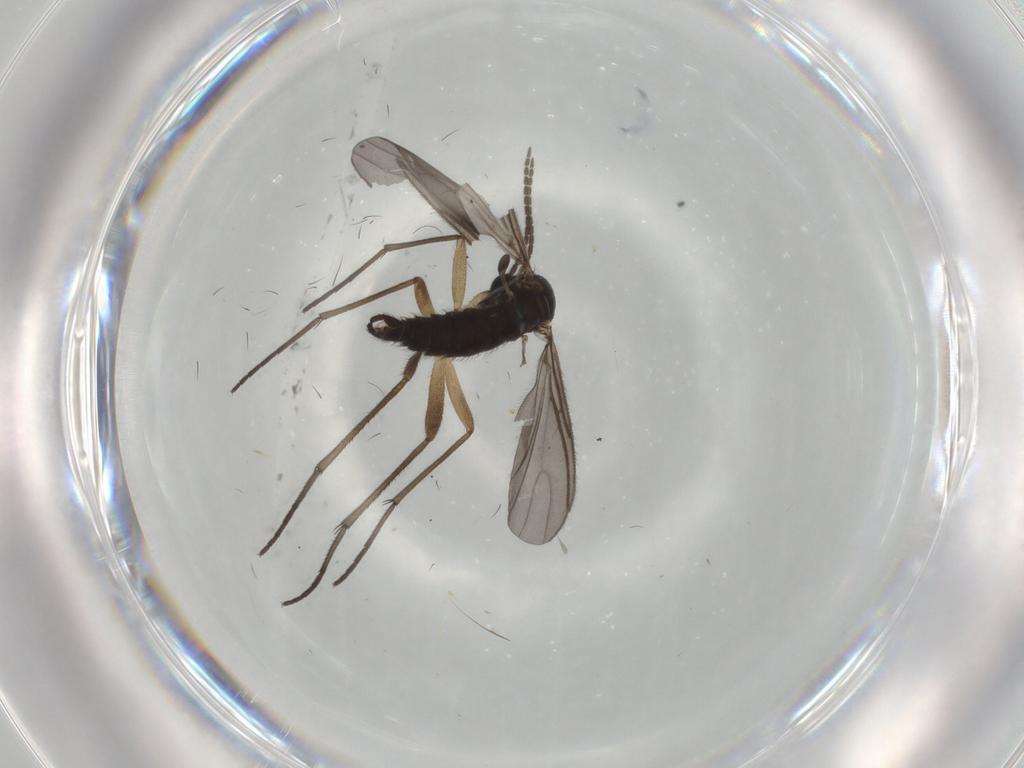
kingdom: Animalia
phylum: Arthropoda
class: Insecta
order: Diptera
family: Sciaridae
